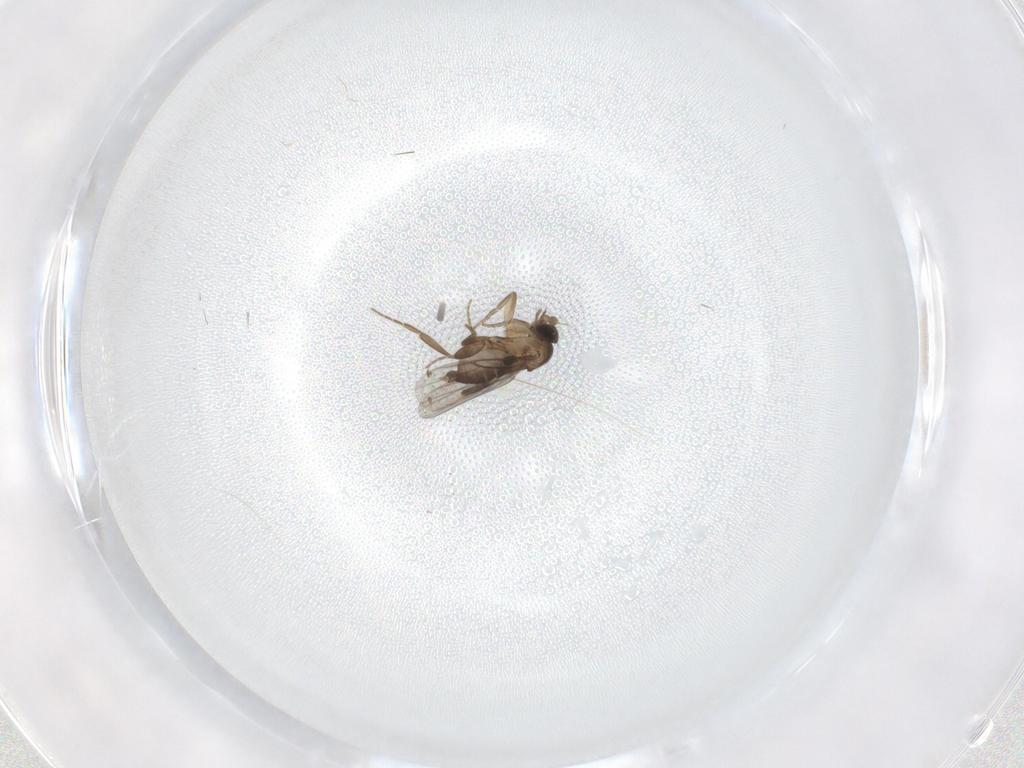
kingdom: Animalia
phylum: Arthropoda
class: Insecta
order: Diptera
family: Phoridae
